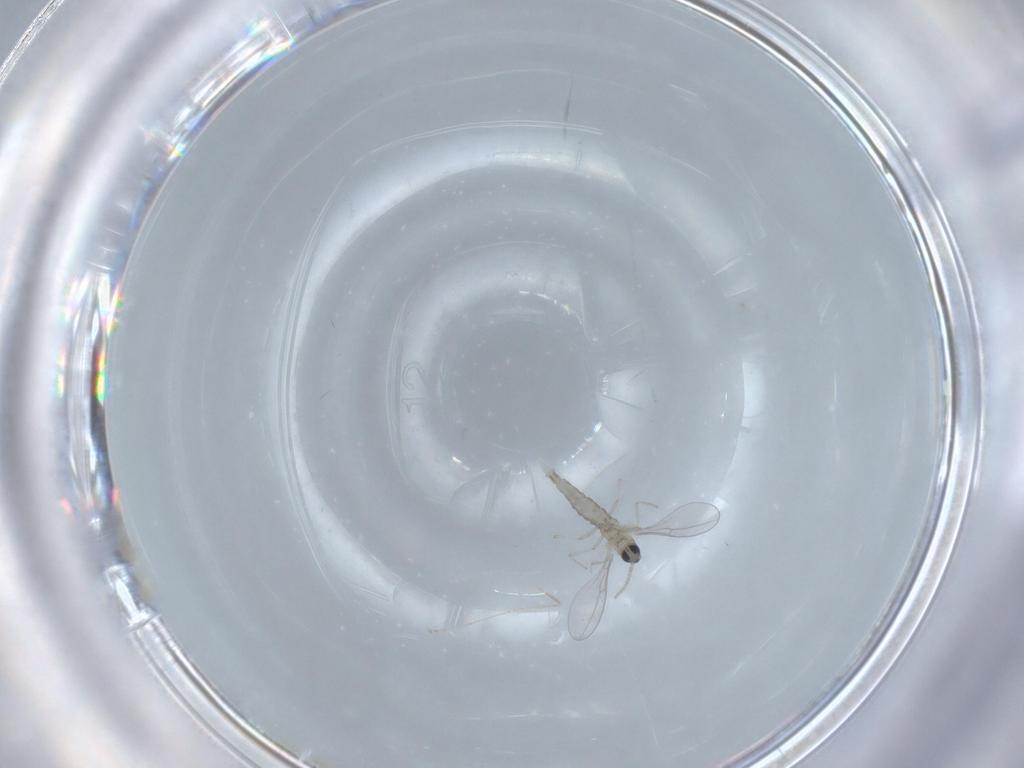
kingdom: Animalia
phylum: Arthropoda
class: Insecta
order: Diptera
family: Cecidomyiidae
